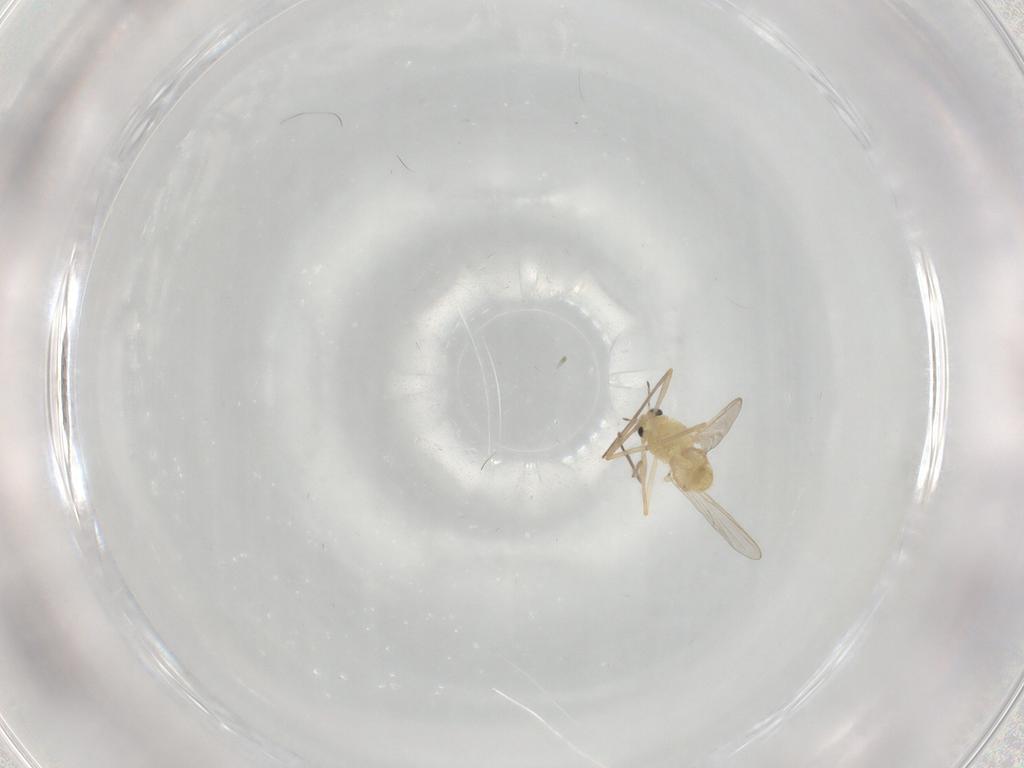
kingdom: Animalia
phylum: Arthropoda
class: Insecta
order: Diptera
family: Chironomidae
